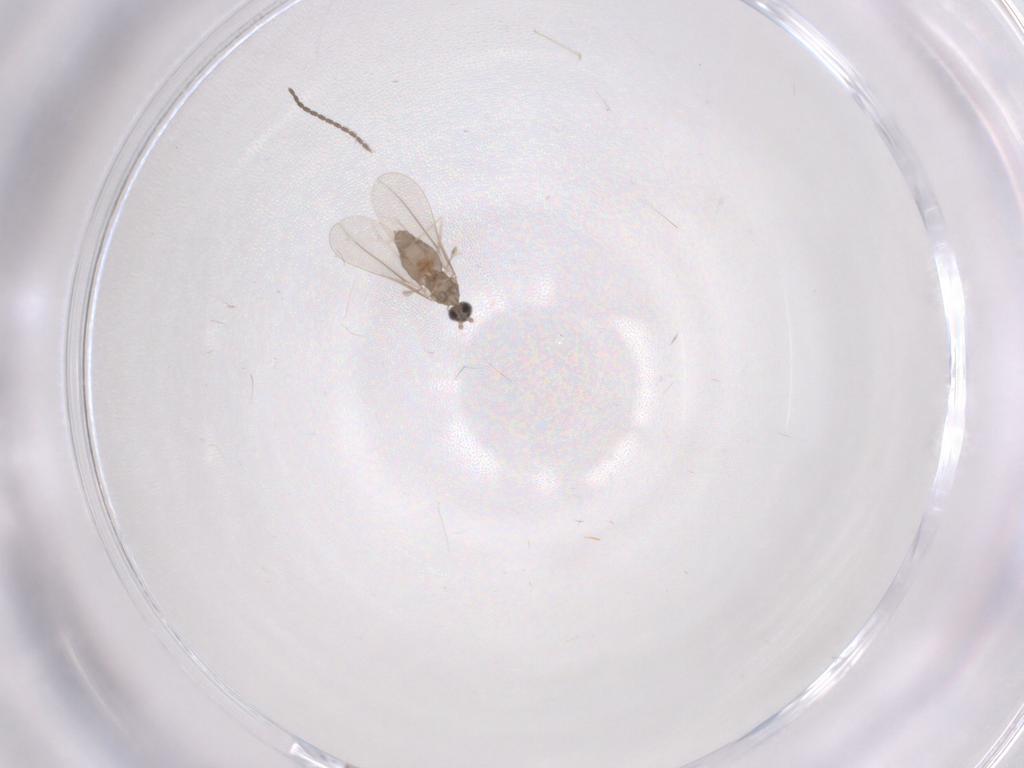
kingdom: Animalia
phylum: Arthropoda
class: Insecta
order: Diptera
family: Cecidomyiidae
